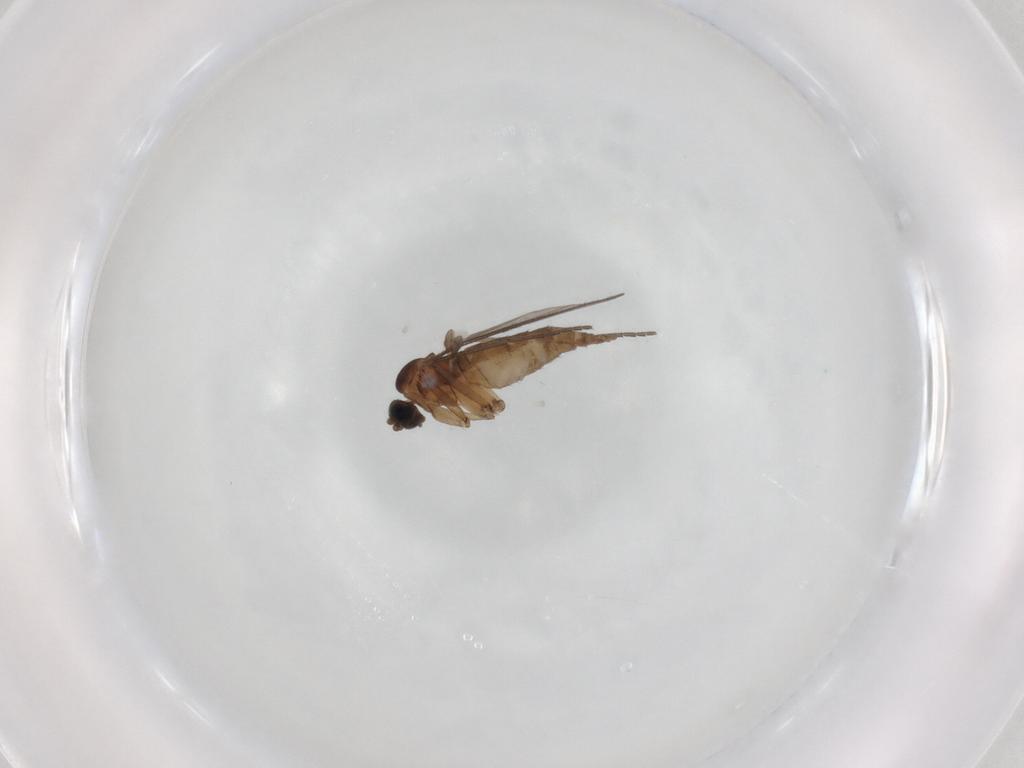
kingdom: Animalia
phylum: Arthropoda
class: Insecta
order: Diptera
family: Sciaridae
